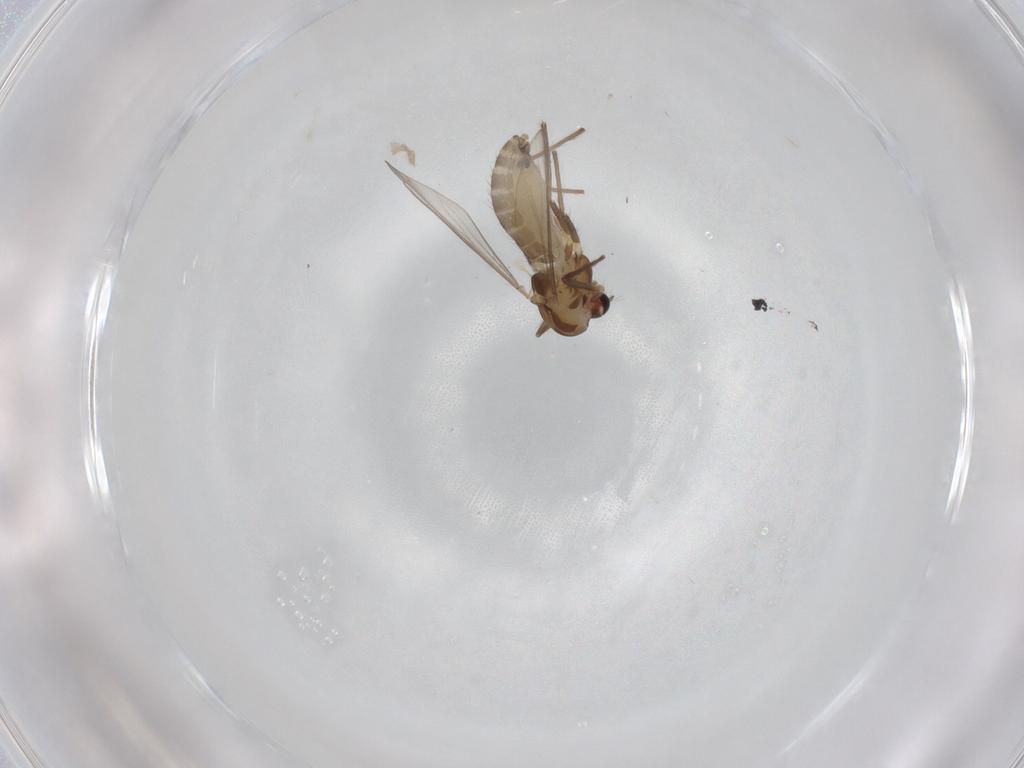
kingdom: Animalia
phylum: Arthropoda
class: Insecta
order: Diptera
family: Chironomidae
